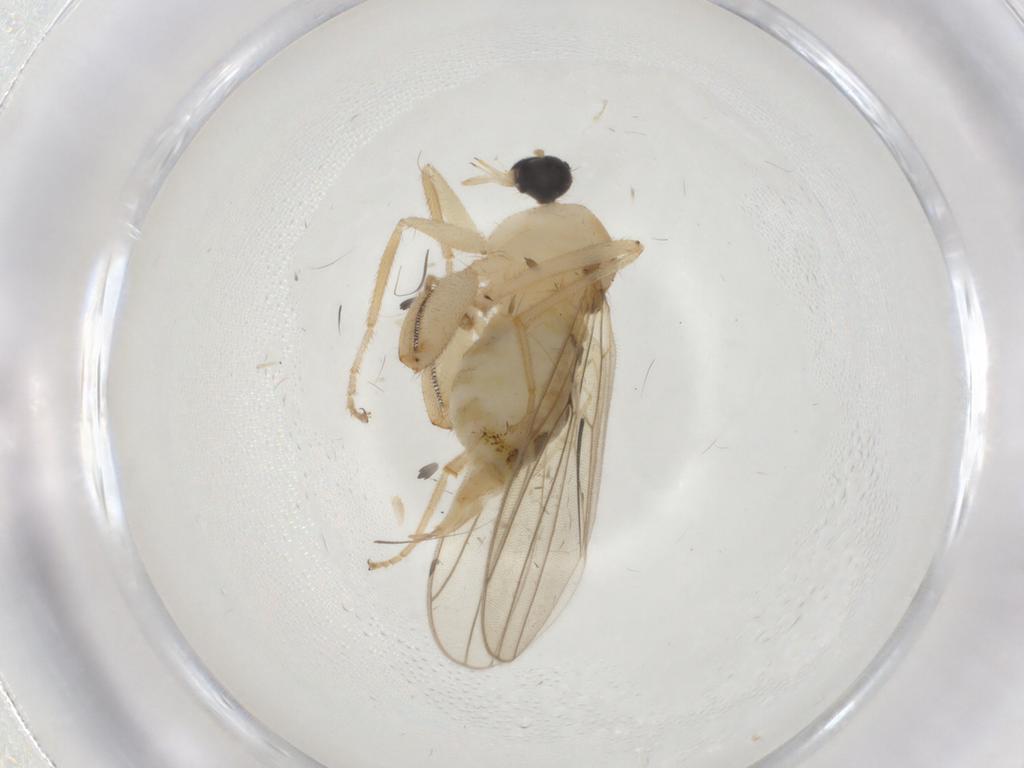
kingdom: Animalia
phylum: Arthropoda
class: Insecta
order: Diptera
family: Hybotidae
